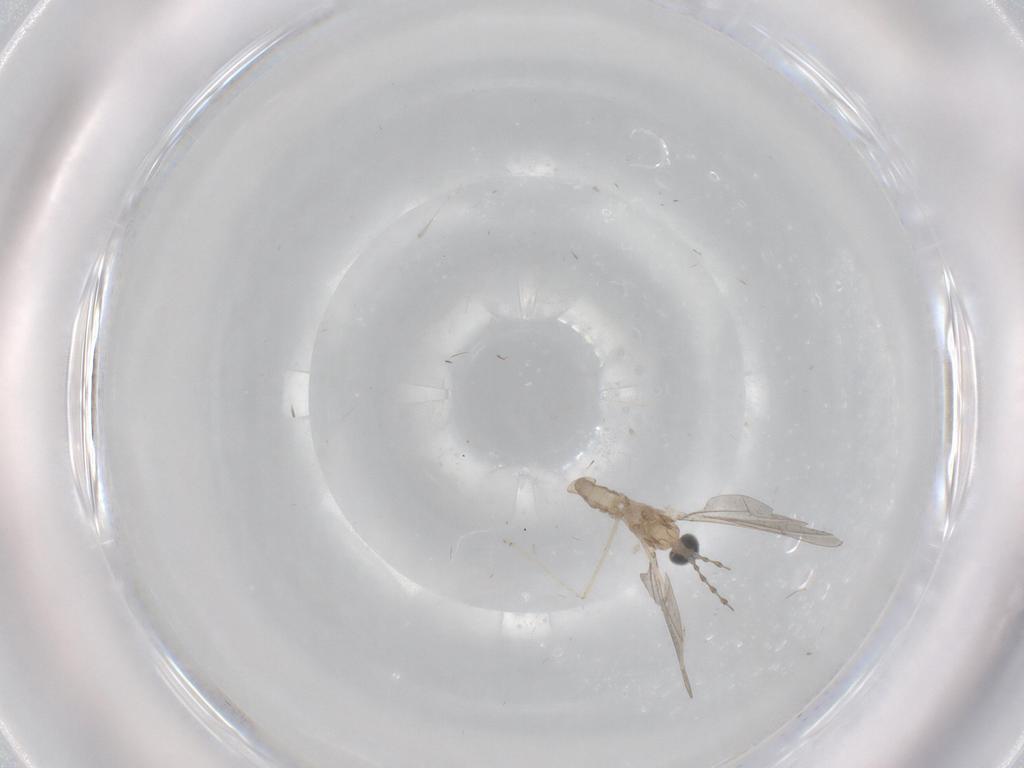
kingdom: Animalia
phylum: Arthropoda
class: Insecta
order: Diptera
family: Cecidomyiidae
